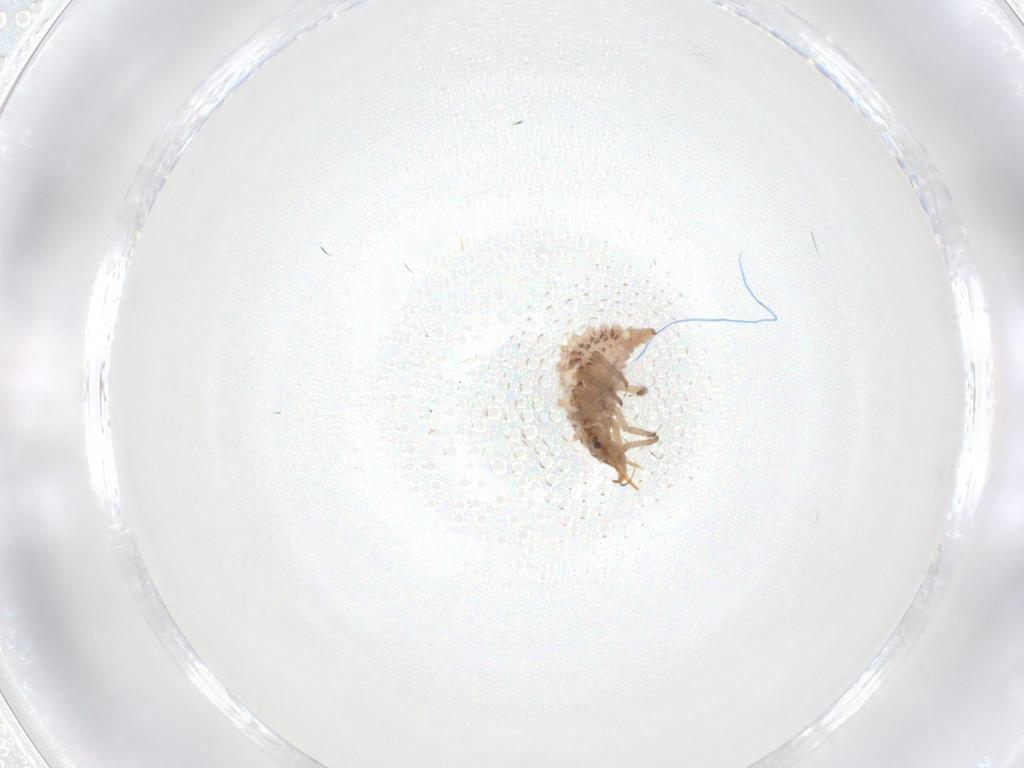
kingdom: Animalia
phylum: Arthropoda
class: Insecta
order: Neuroptera
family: Chrysopidae
